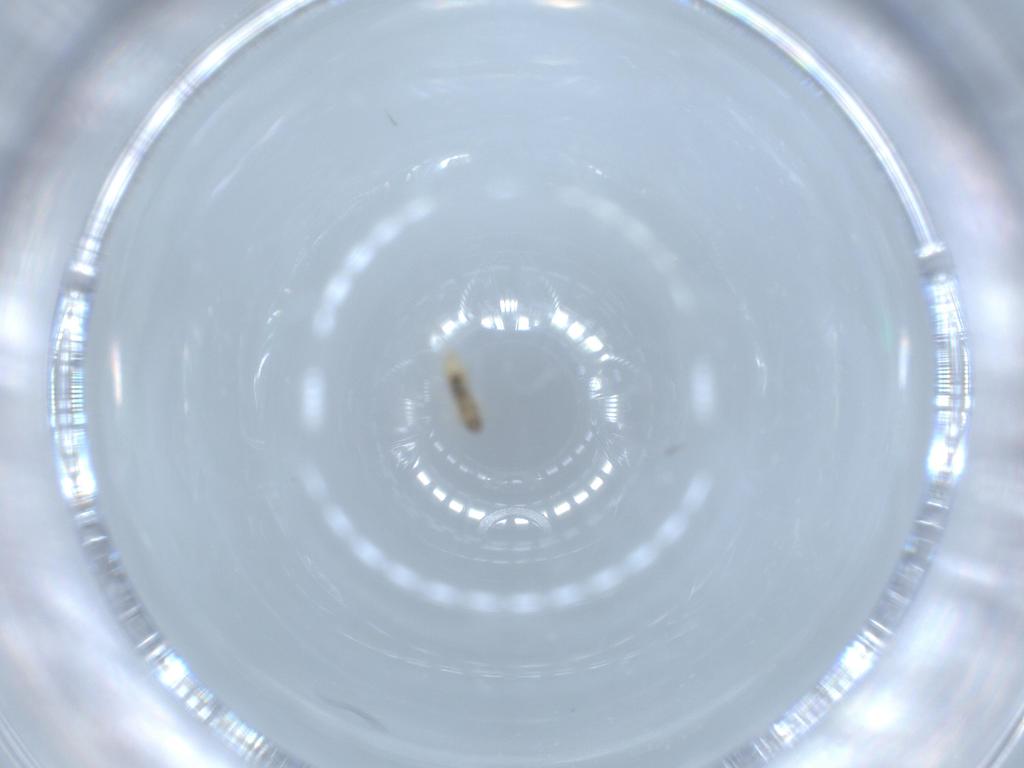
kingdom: Animalia
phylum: Arthropoda
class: Insecta
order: Diptera
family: Cecidomyiidae
